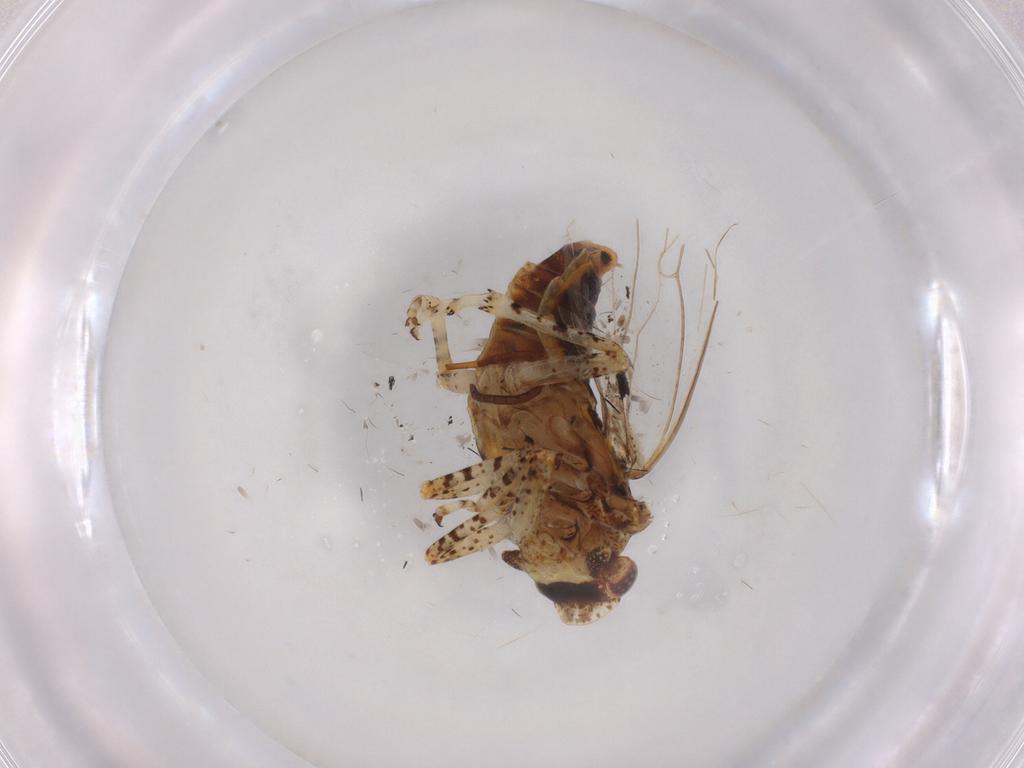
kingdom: Animalia
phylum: Arthropoda
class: Insecta
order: Hemiptera
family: Tettigometridae
